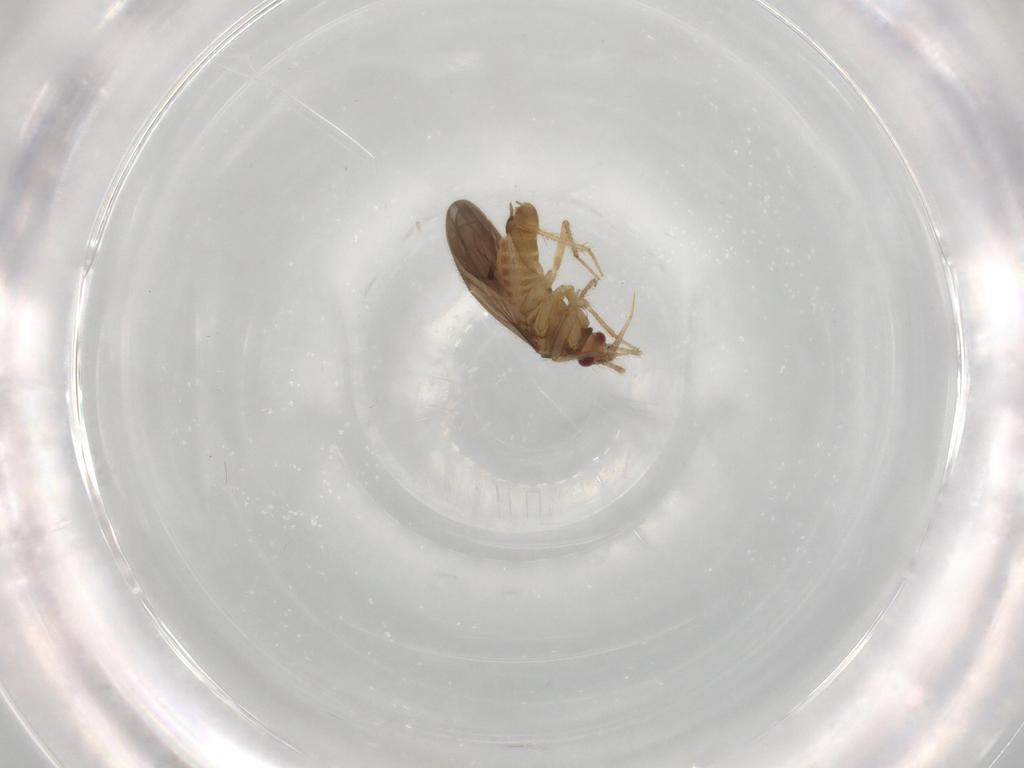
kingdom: Animalia
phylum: Arthropoda
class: Insecta
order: Hemiptera
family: Ceratocombidae
